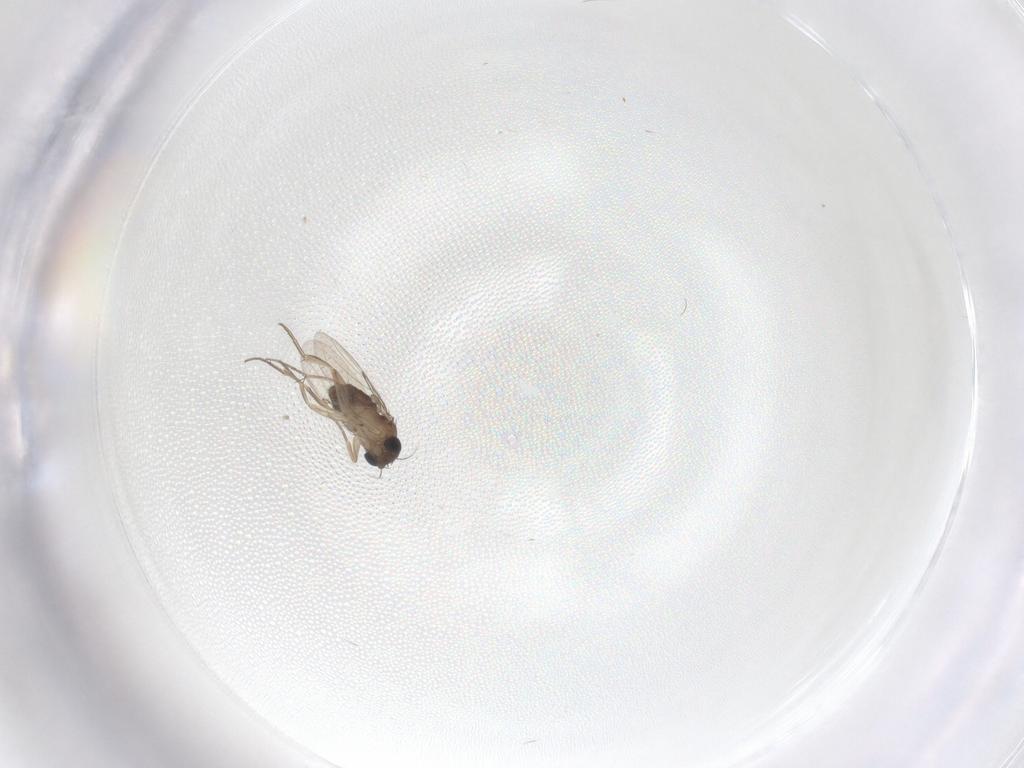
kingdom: Animalia
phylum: Arthropoda
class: Insecta
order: Diptera
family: Phoridae
